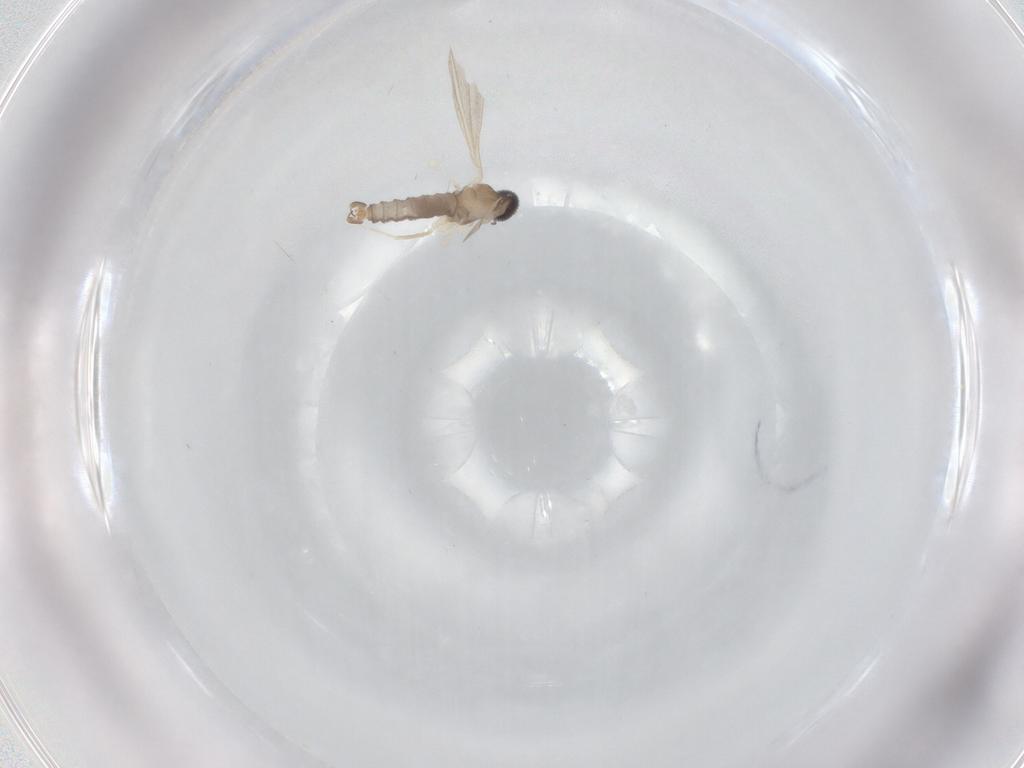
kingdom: Animalia
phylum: Arthropoda
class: Insecta
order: Diptera
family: Cecidomyiidae
